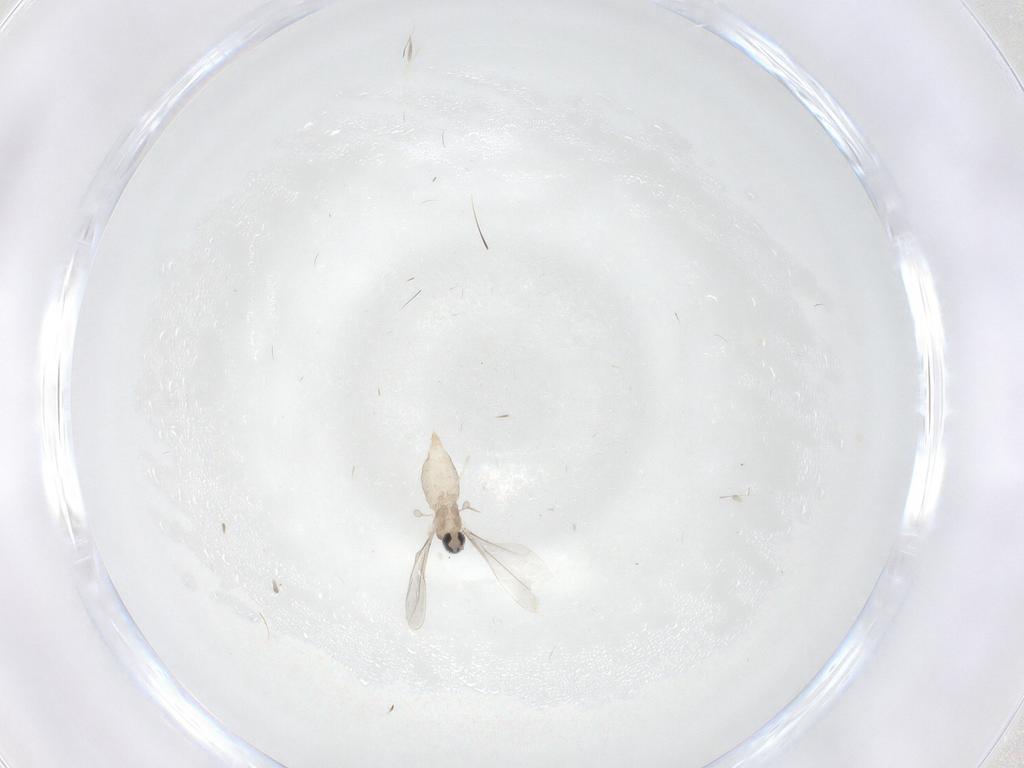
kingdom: Animalia
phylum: Arthropoda
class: Insecta
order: Diptera
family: Cecidomyiidae
